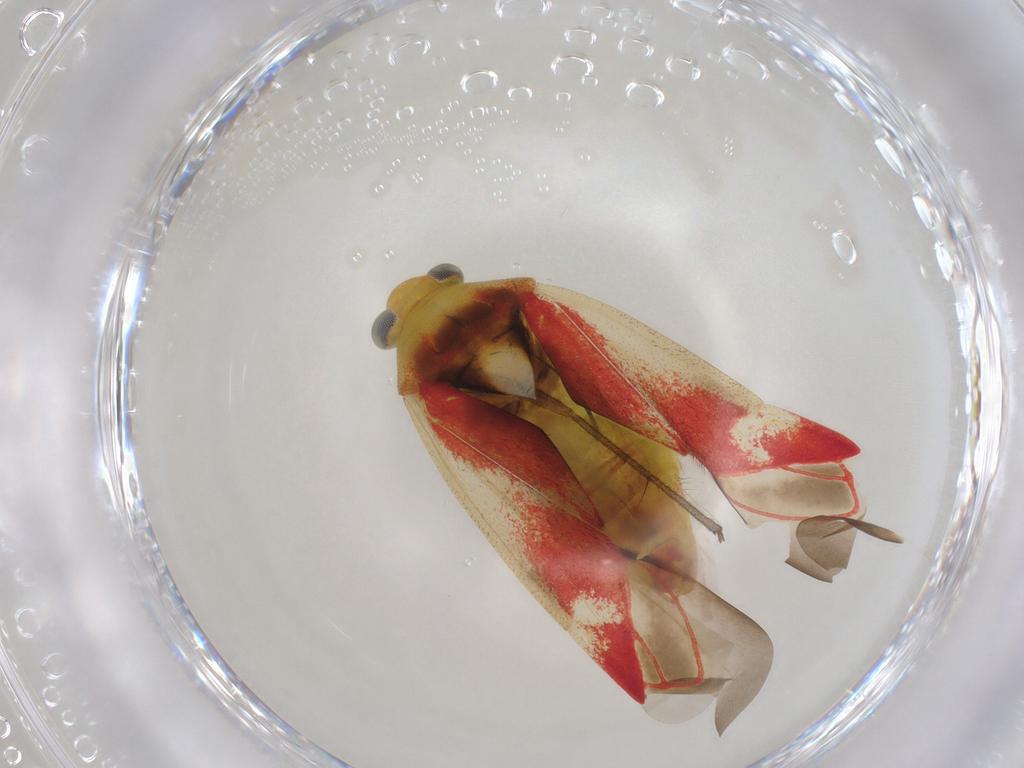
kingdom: Animalia
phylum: Arthropoda
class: Insecta
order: Hemiptera
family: Miridae
